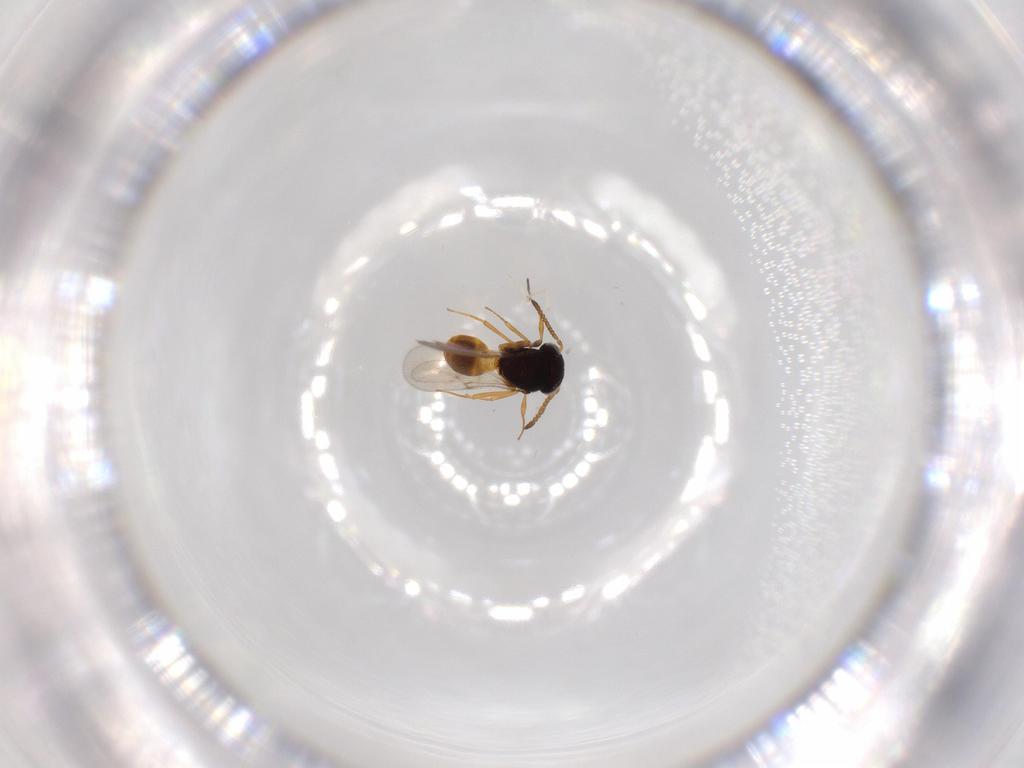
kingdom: Animalia
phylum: Arthropoda
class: Insecta
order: Hymenoptera
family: Scelionidae
